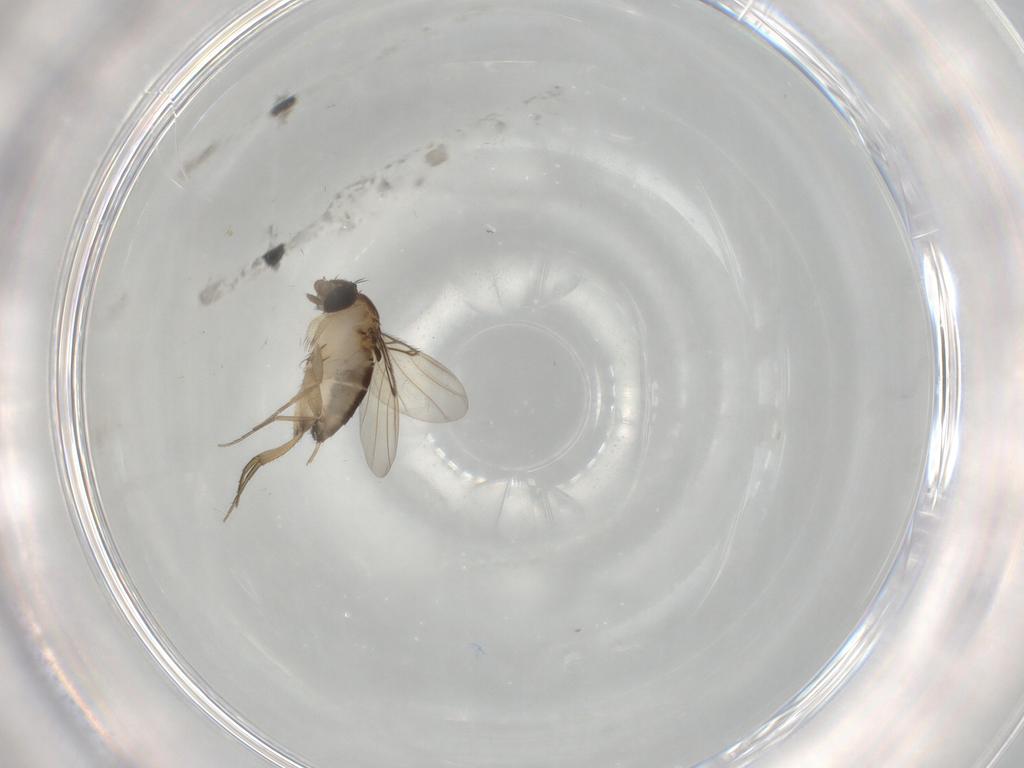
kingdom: Animalia
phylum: Arthropoda
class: Insecta
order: Diptera
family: Phoridae
